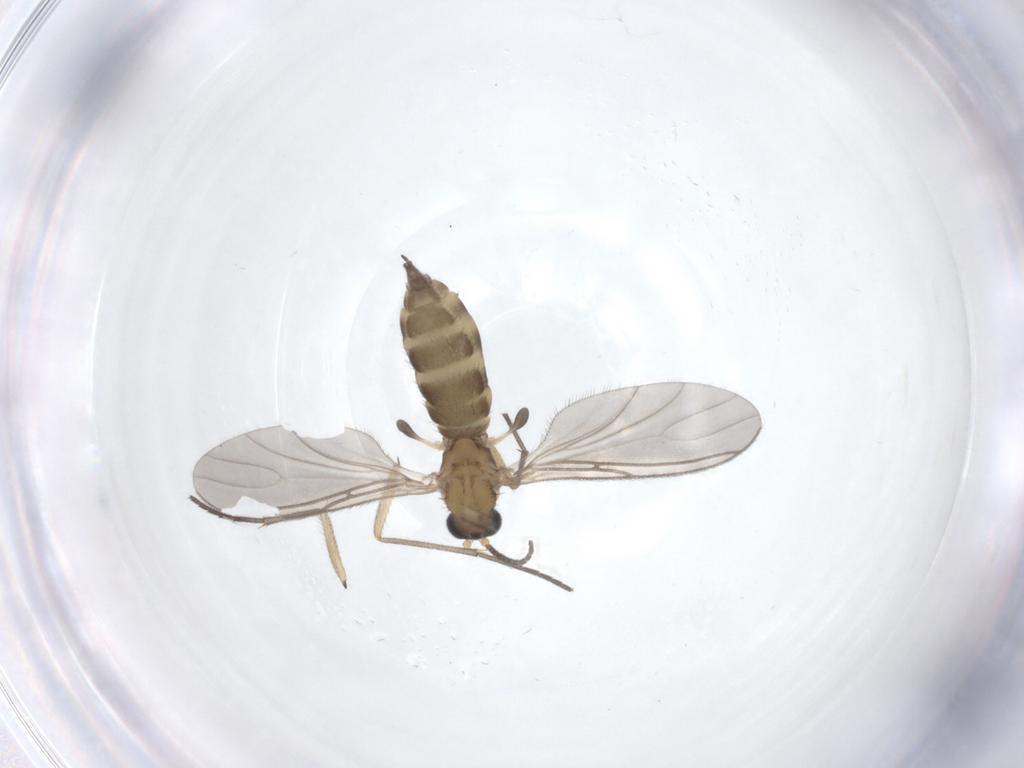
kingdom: Animalia
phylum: Arthropoda
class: Insecta
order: Diptera
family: Sciaridae
